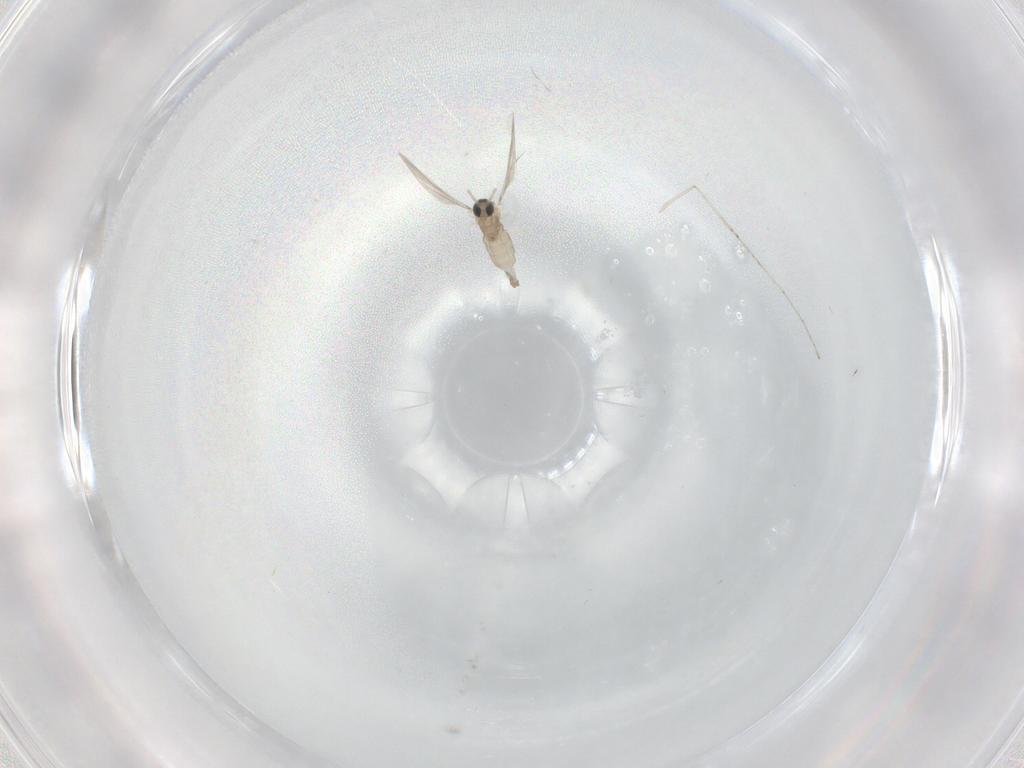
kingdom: Animalia
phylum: Arthropoda
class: Insecta
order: Diptera
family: Cecidomyiidae
